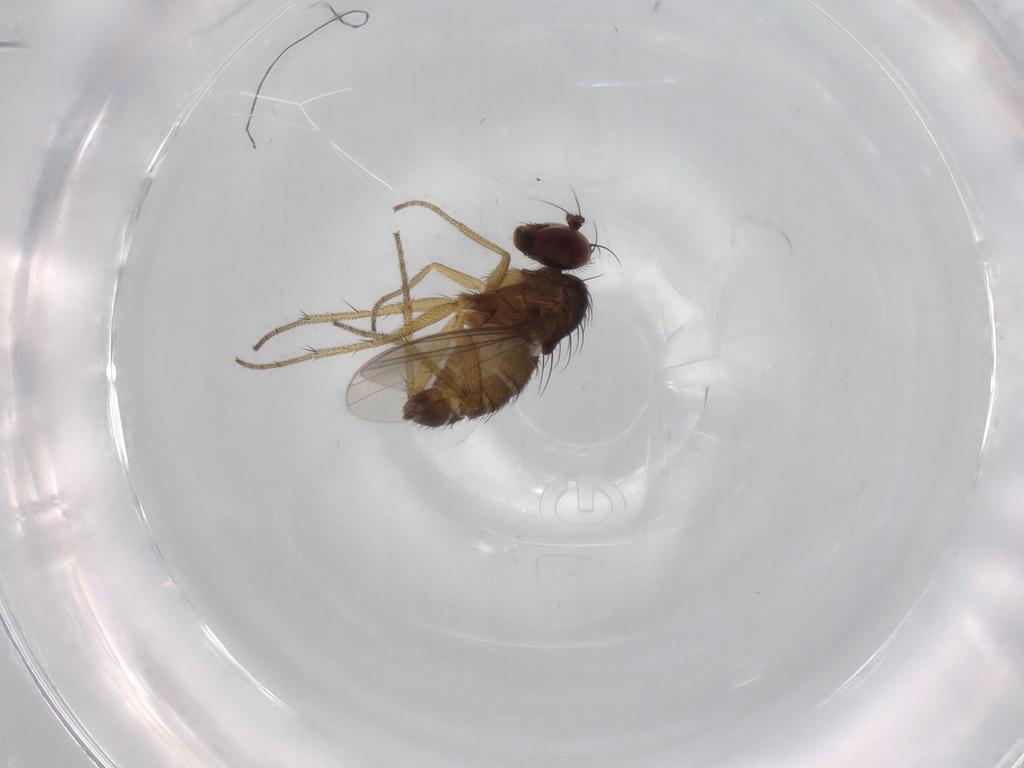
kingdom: Animalia
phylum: Arthropoda
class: Insecta
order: Diptera
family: Dolichopodidae
